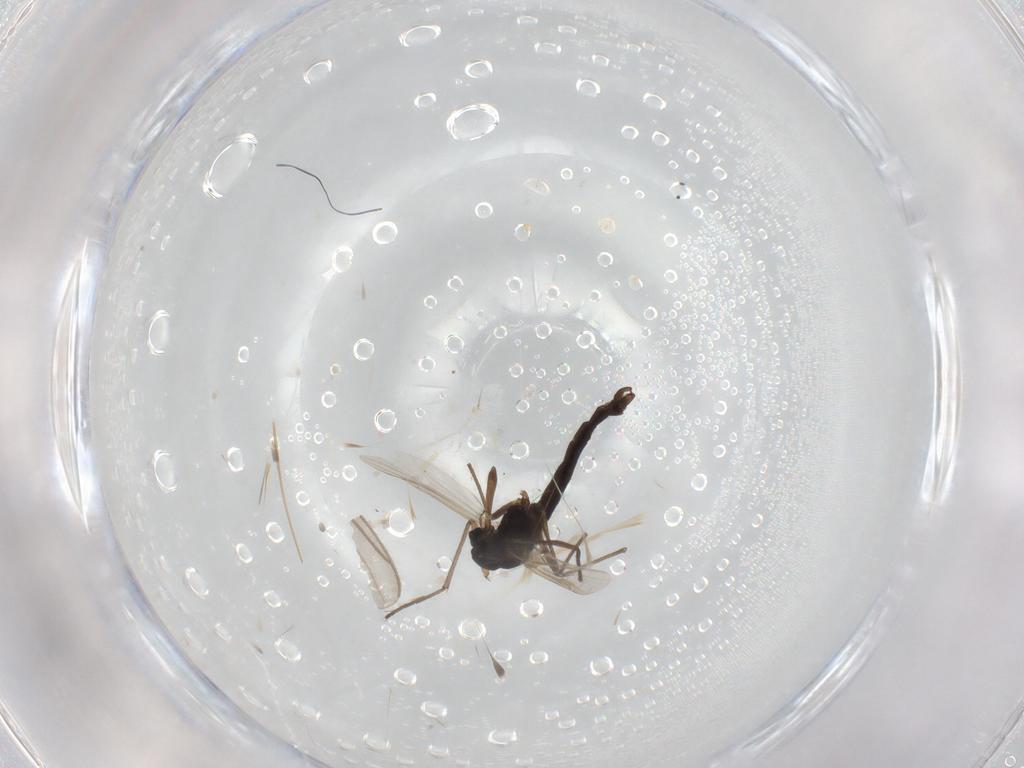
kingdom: Animalia
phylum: Arthropoda
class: Insecta
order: Diptera
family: Chironomidae
